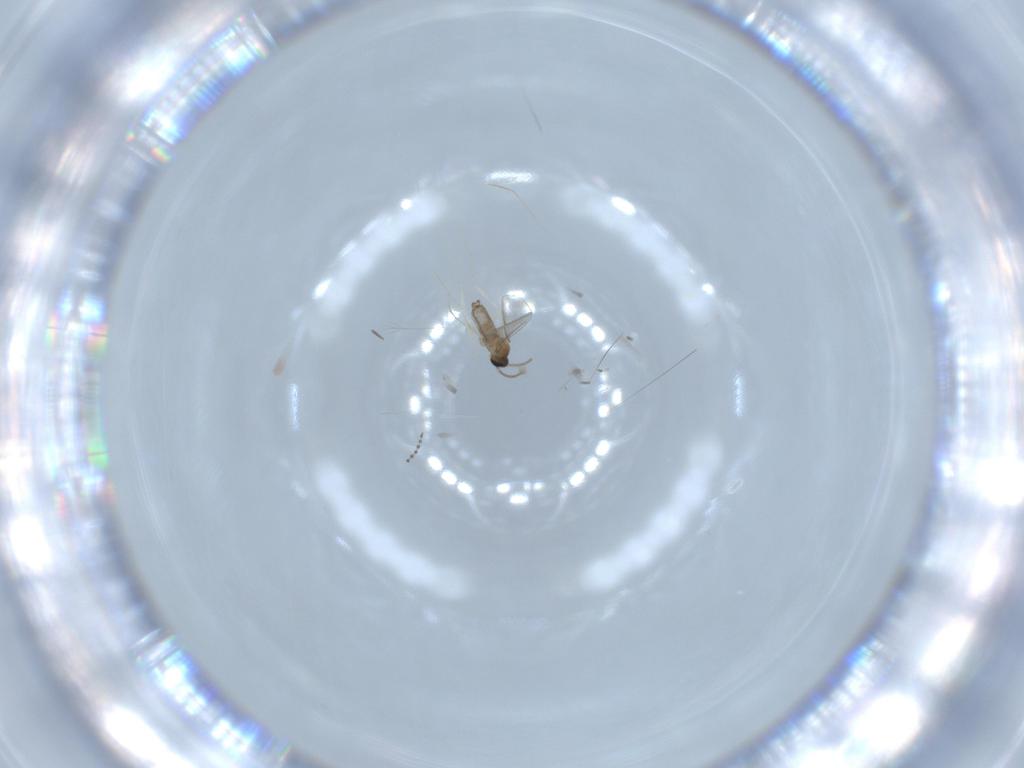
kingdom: Animalia
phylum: Arthropoda
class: Insecta
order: Diptera
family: Cecidomyiidae
